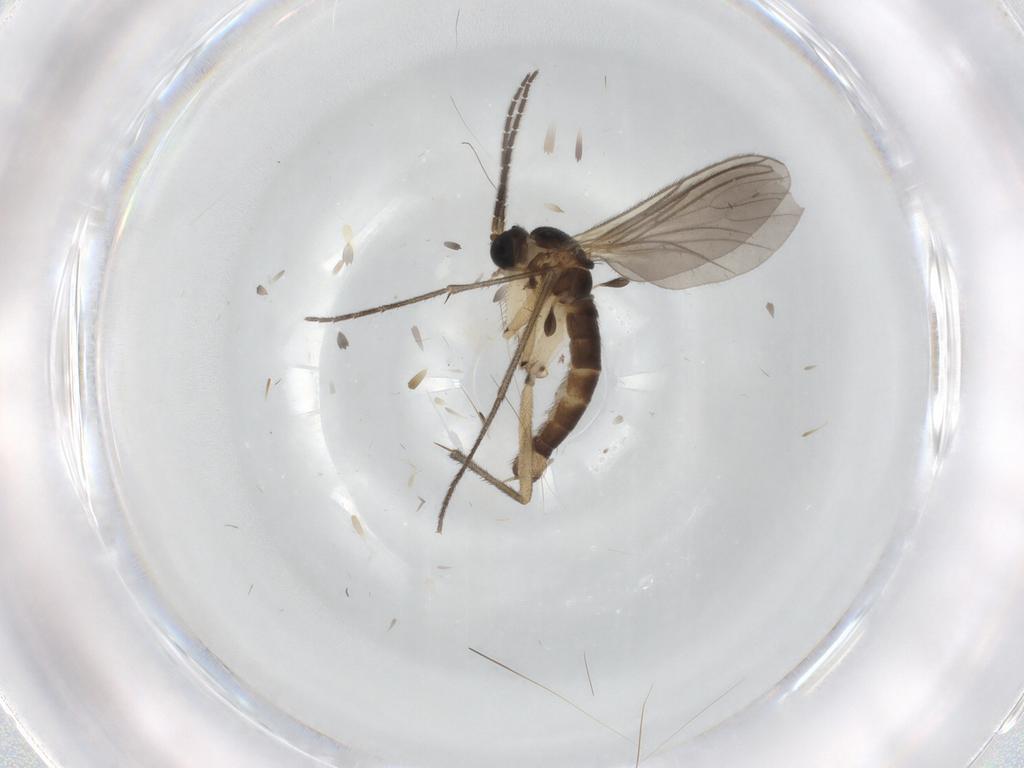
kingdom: Animalia
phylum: Arthropoda
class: Insecta
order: Diptera
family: Sciaridae
